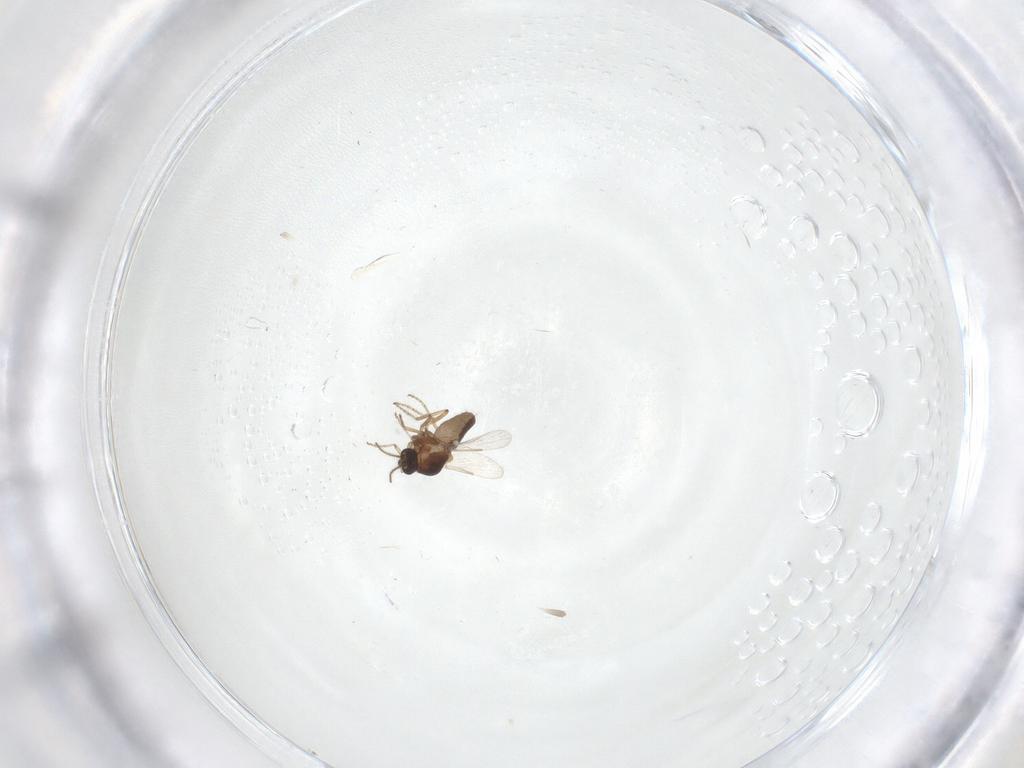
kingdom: Animalia
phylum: Arthropoda
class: Insecta
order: Diptera
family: Ceratopogonidae
